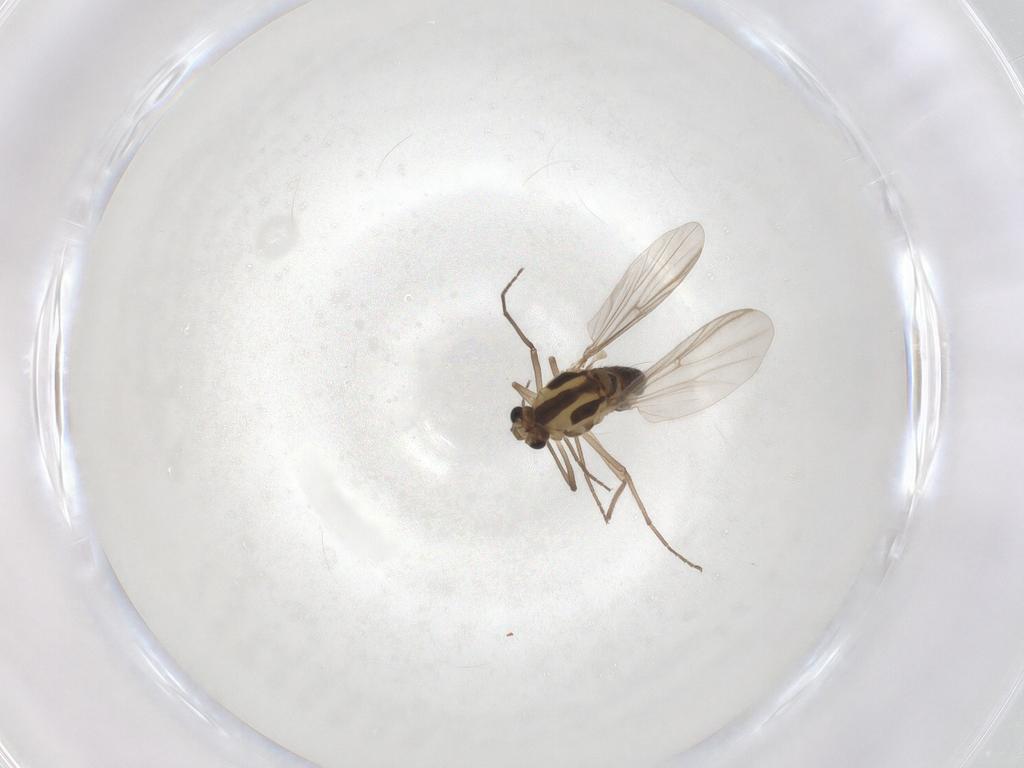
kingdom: Animalia
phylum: Arthropoda
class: Insecta
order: Diptera
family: Chironomidae
